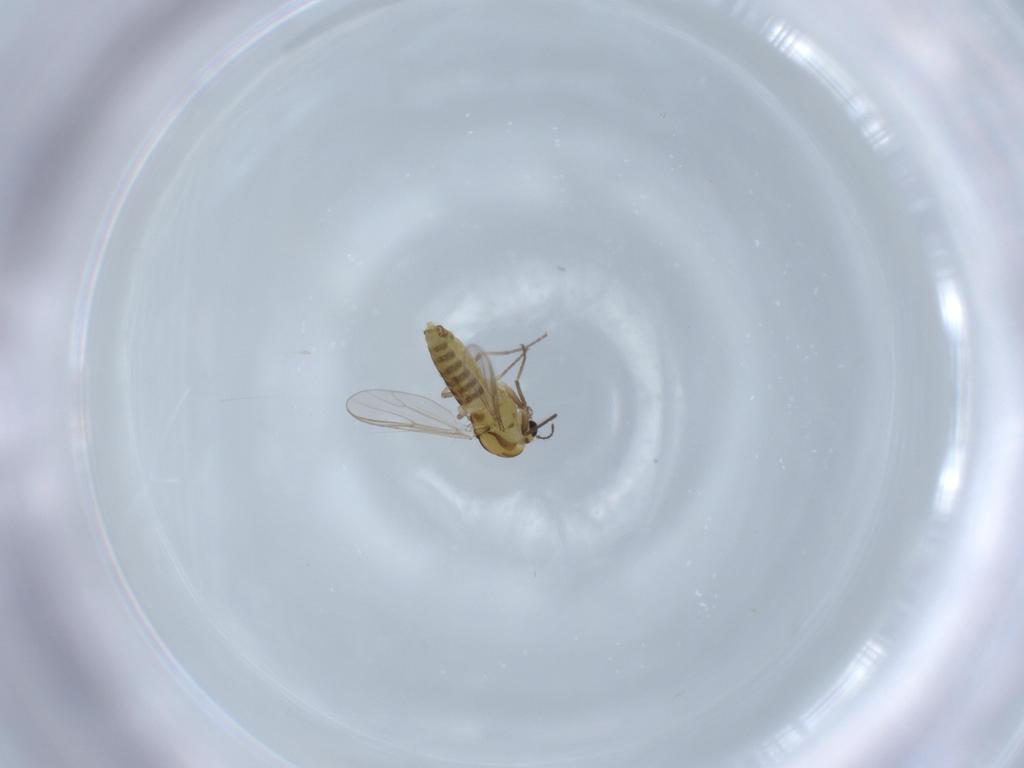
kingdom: Animalia
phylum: Arthropoda
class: Insecta
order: Diptera
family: Chironomidae
